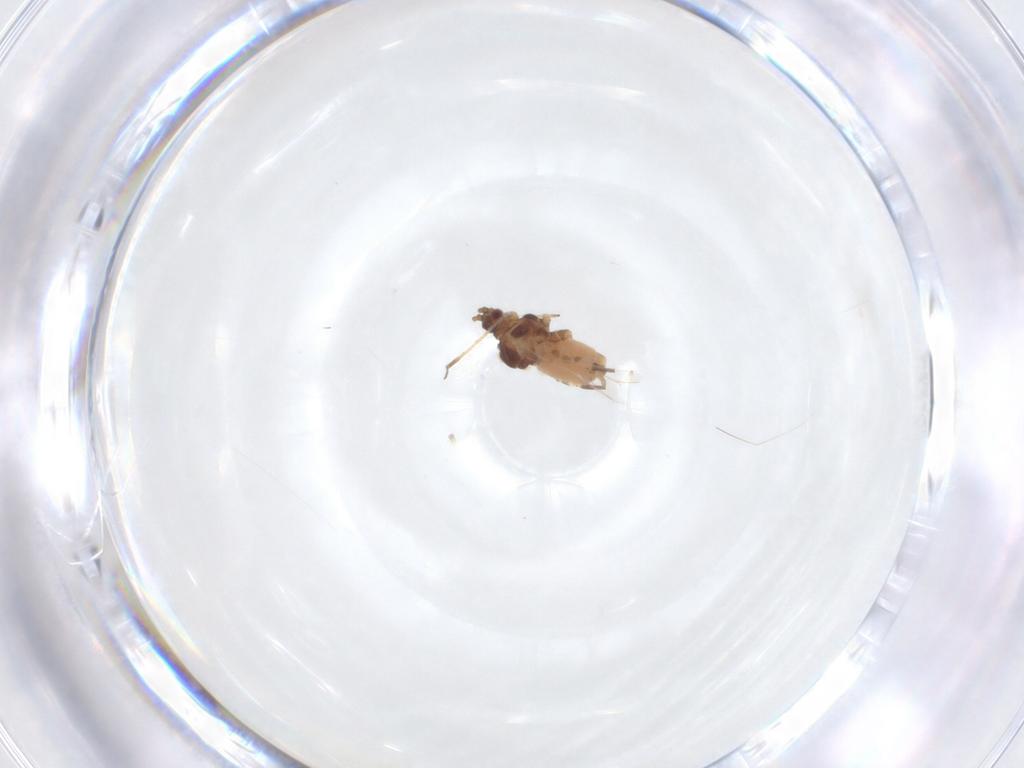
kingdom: Animalia
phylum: Arthropoda
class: Insecta
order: Hemiptera
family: Aphididae
